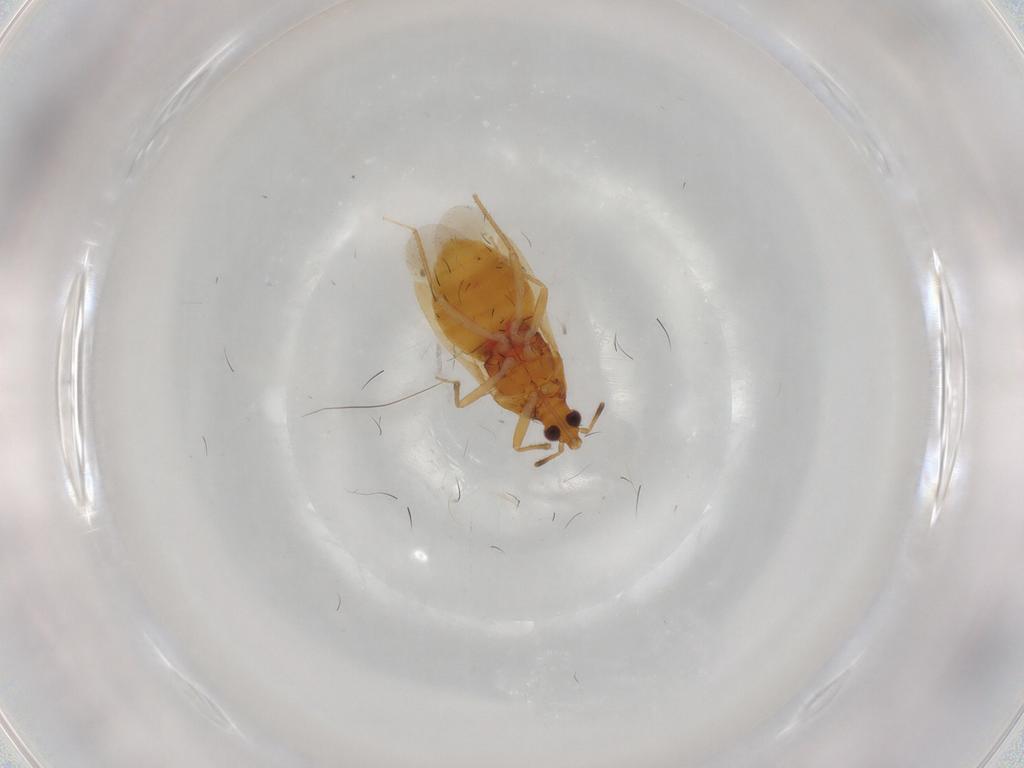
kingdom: Animalia
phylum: Arthropoda
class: Insecta
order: Hemiptera
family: Anthocoridae
